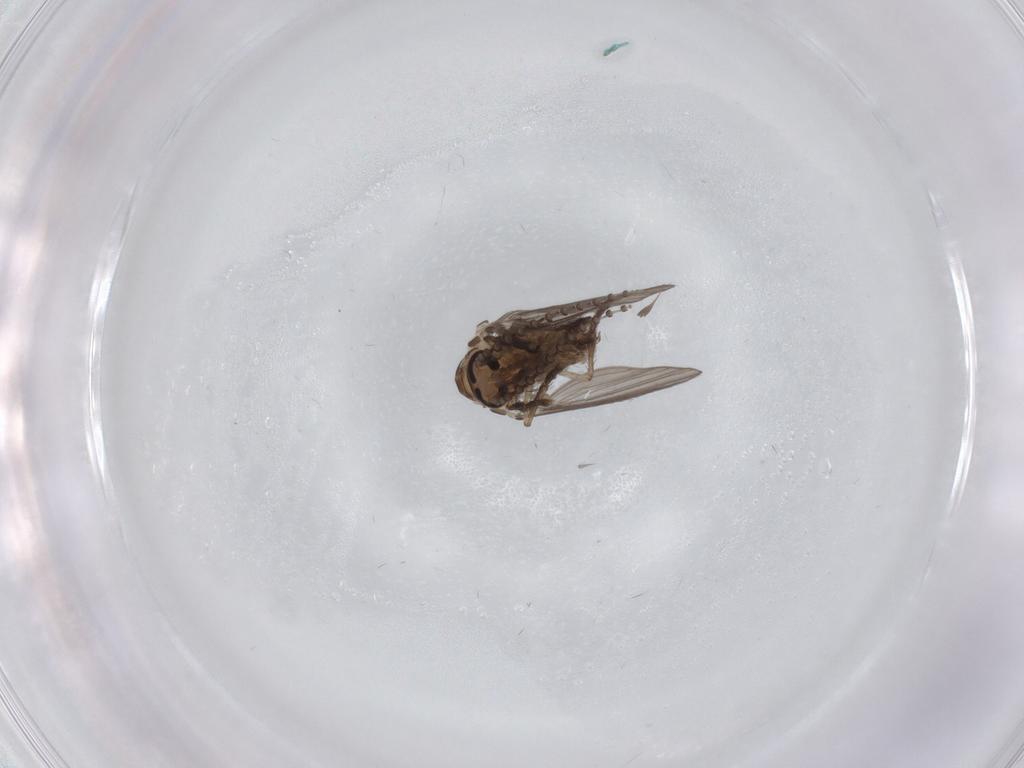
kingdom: Animalia
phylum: Arthropoda
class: Insecta
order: Diptera
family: Psychodidae
